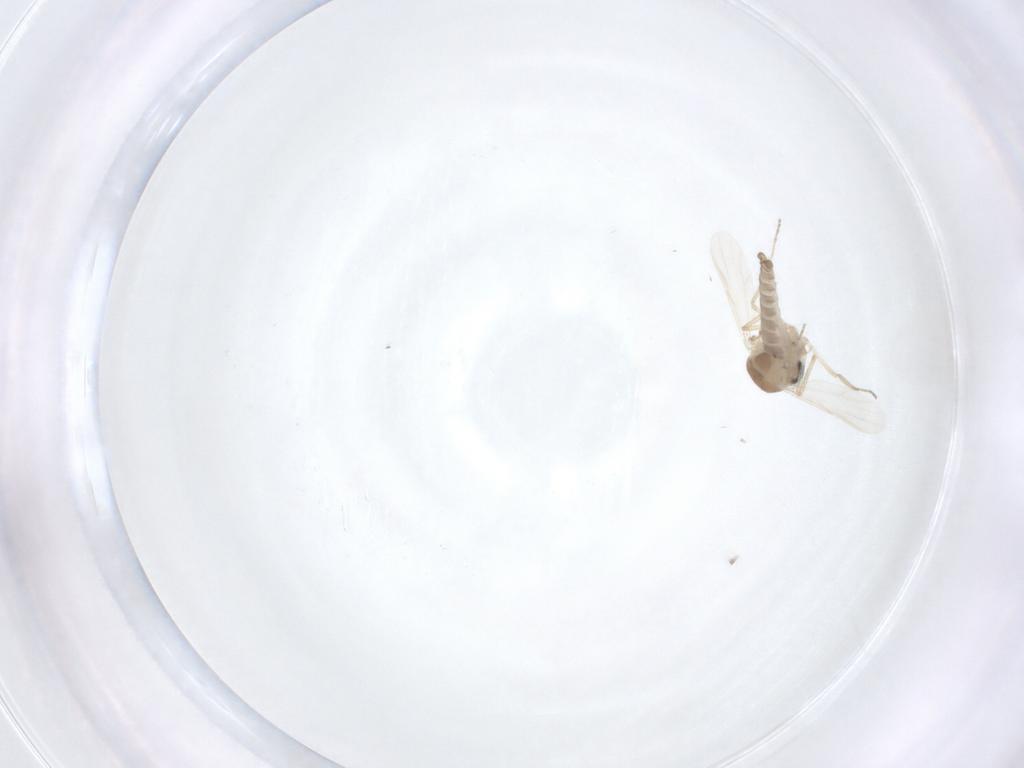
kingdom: Animalia
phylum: Arthropoda
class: Insecta
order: Diptera
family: Ceratopogonidae
